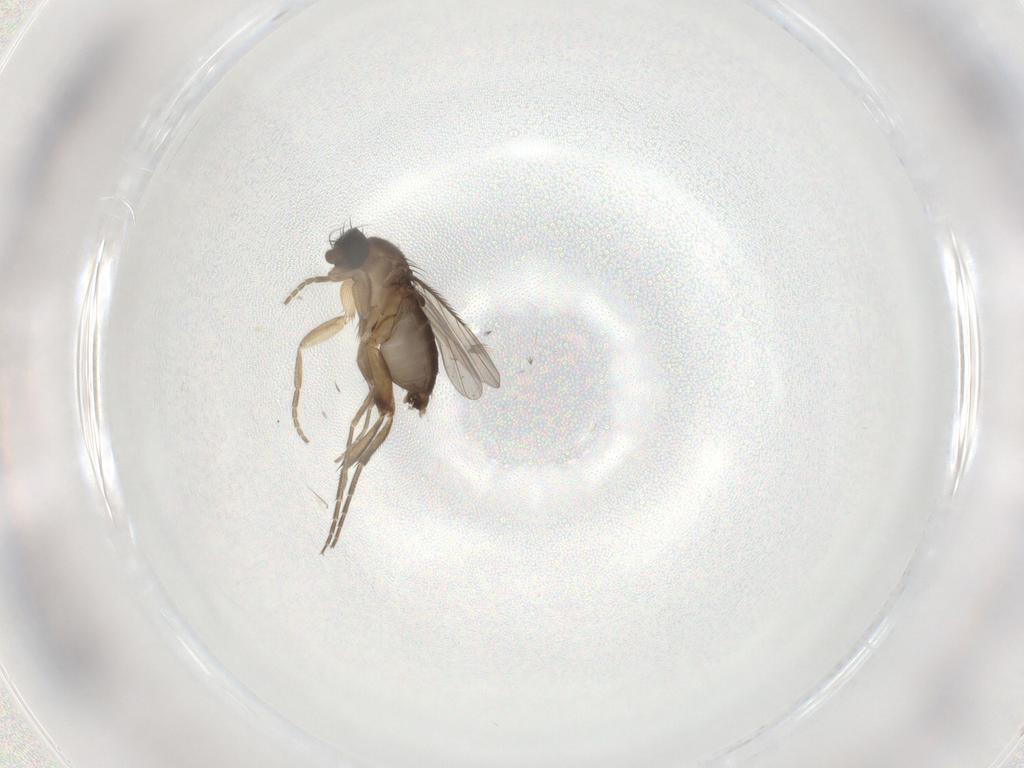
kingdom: Animalia
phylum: Arthropoda
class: Insecta
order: Diptera
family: Phoridae
